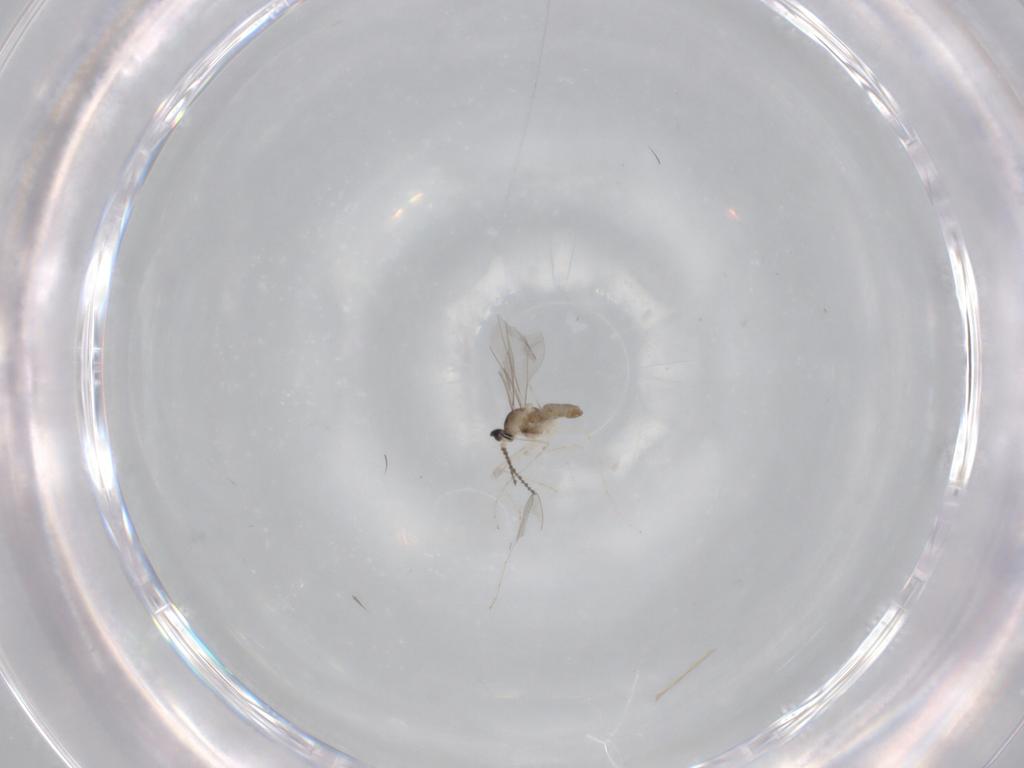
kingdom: Animalia
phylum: Arthropoda
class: Insecta
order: Diptera
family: Cecidomyiidae
